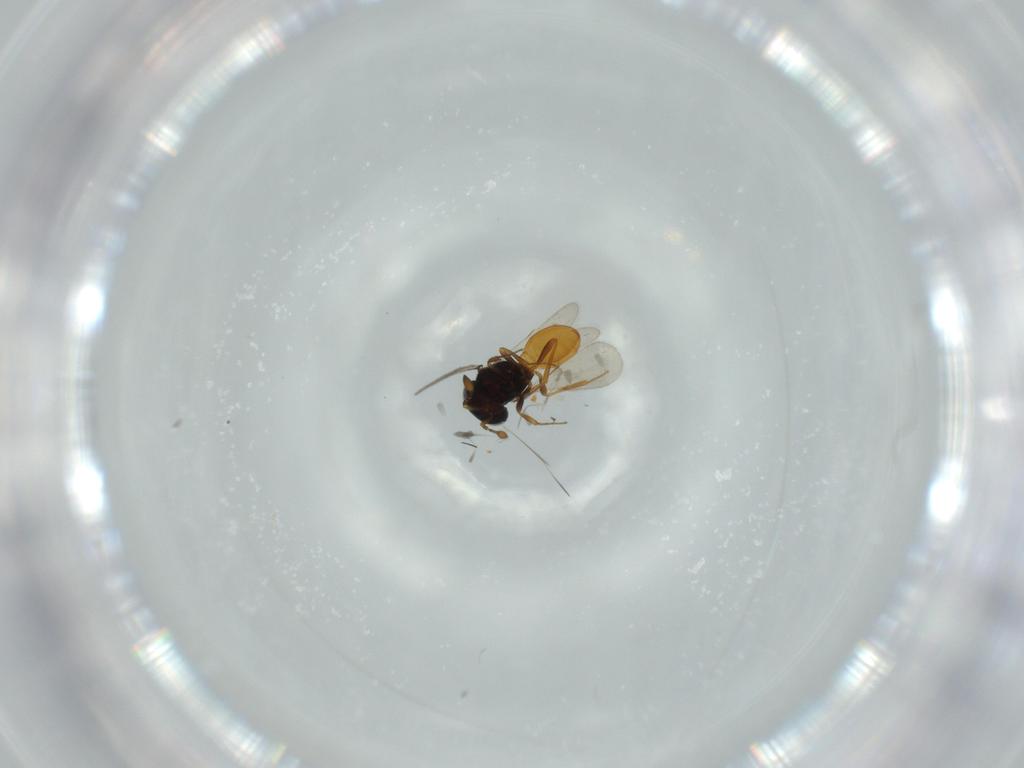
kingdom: Animalia
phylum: Arthropoda
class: Insecta
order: Hymenoptera
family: Scelionidae
